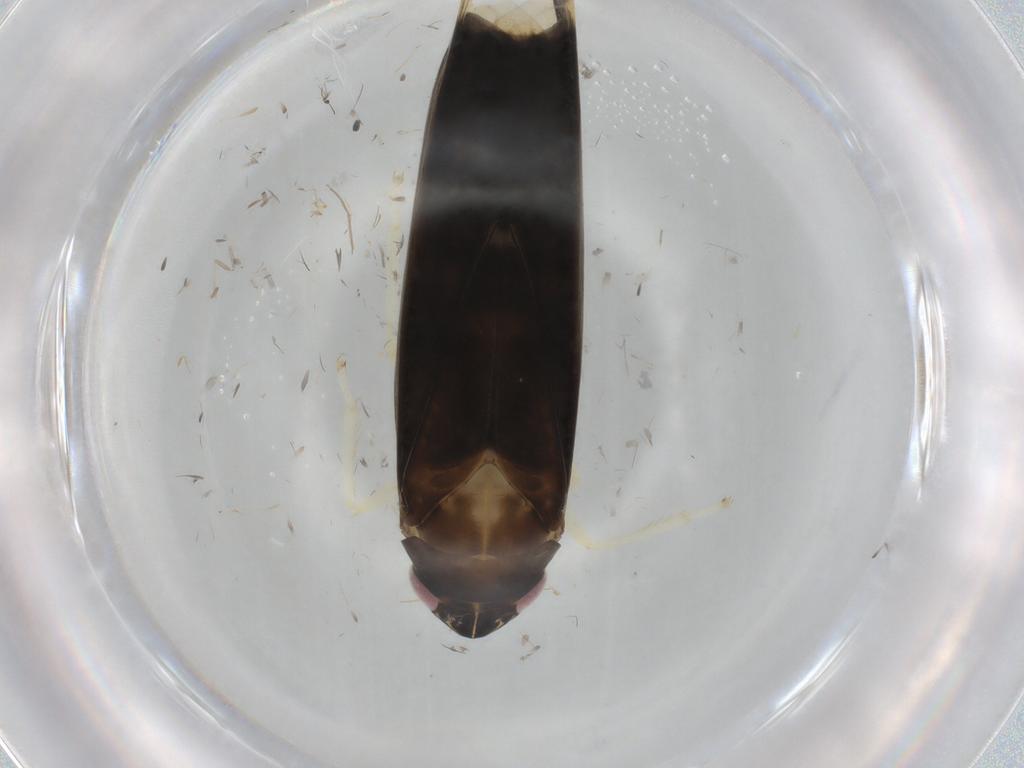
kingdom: Animalia
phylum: Arthropoda
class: Insecta
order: Hemiptera
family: Cicadellidae
